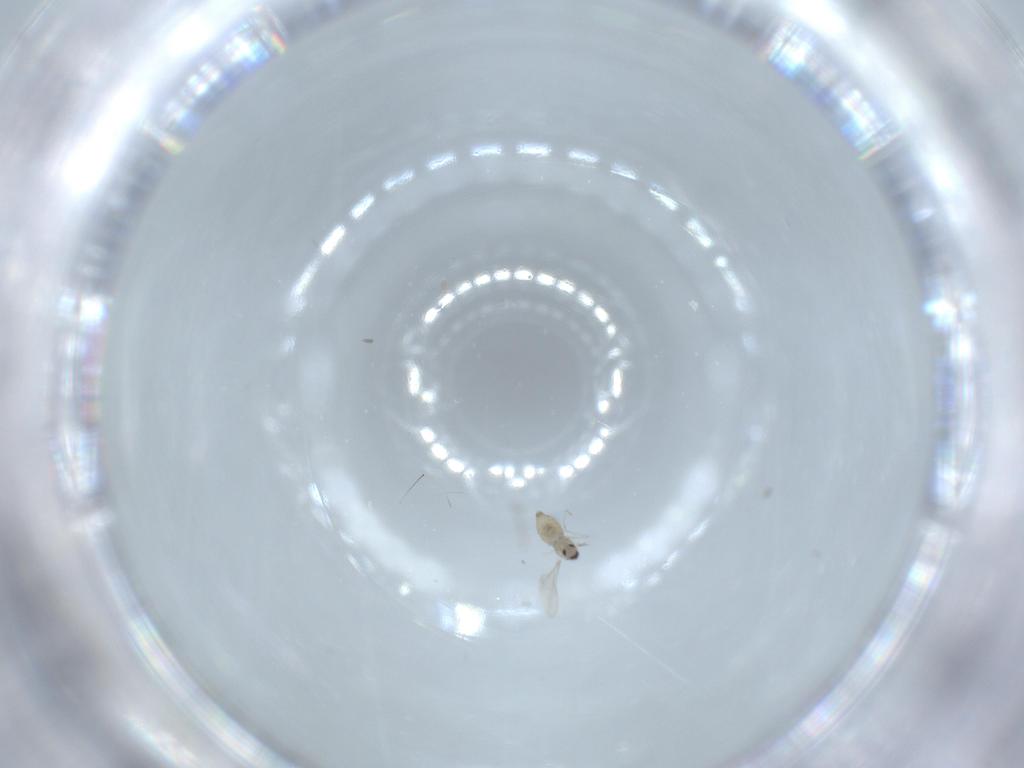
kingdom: Animalia
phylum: Arthropoda
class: Insecta
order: Diptera
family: Cecidomyiidae
